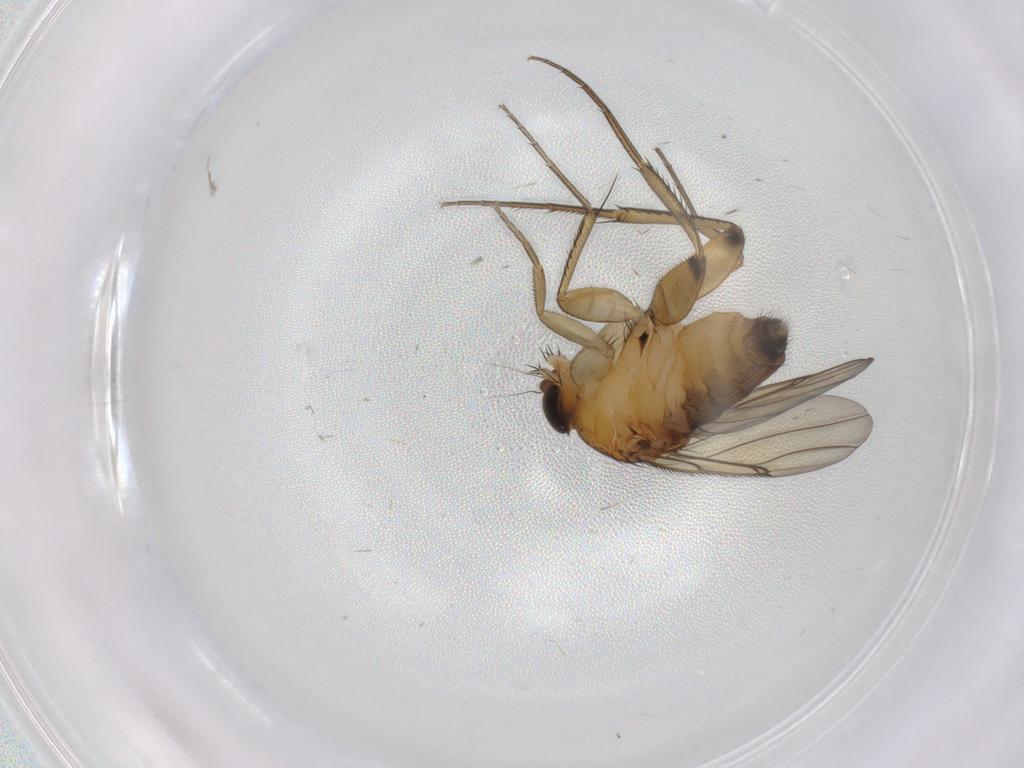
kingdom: Animalia
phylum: Arthropoda
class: Insecta
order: Diptera
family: Phoridae
